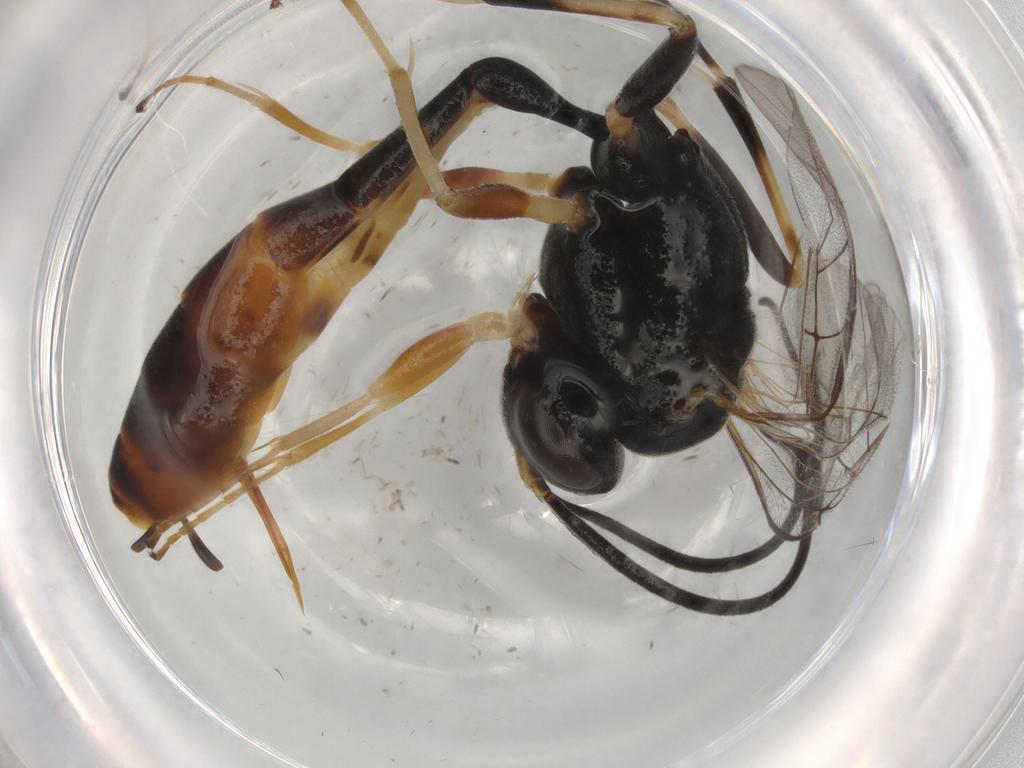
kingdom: Animalia
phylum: Arthropoda
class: Insecta
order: Hymenoptera
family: Ichneumonidae
